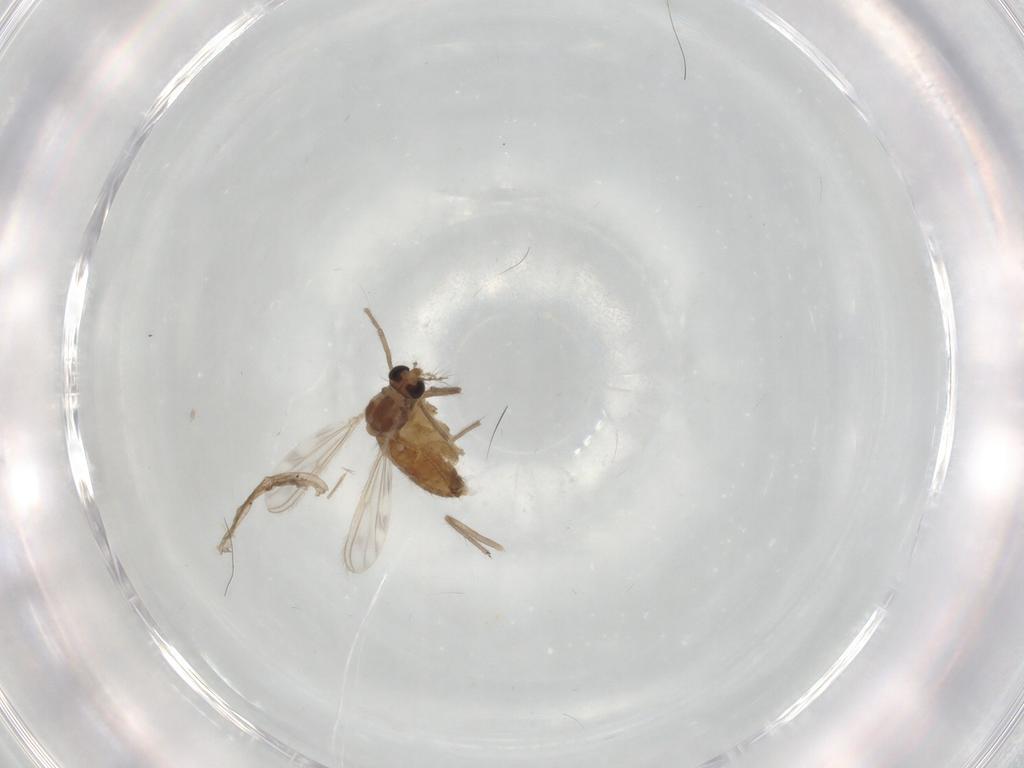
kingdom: Animalia
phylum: Arthropoda
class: Insecta
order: Diptera
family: Chironomidae
